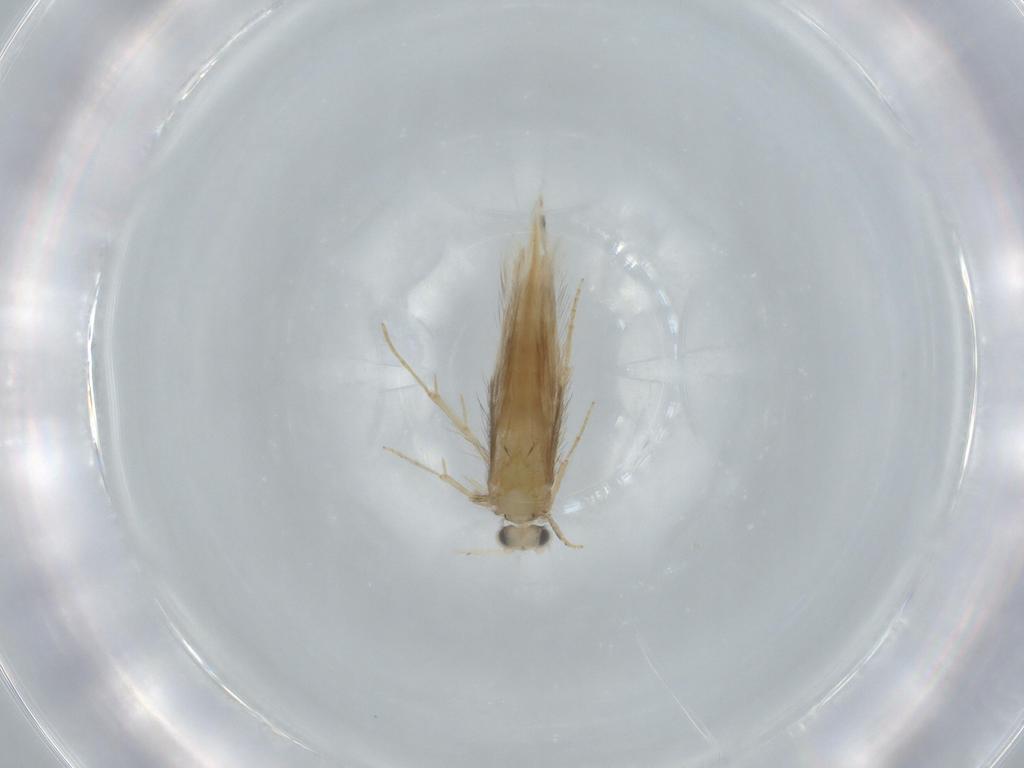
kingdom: Animalia
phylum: Arthropoda
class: Insecta
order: Trichoptera
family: Hydroptilidae
